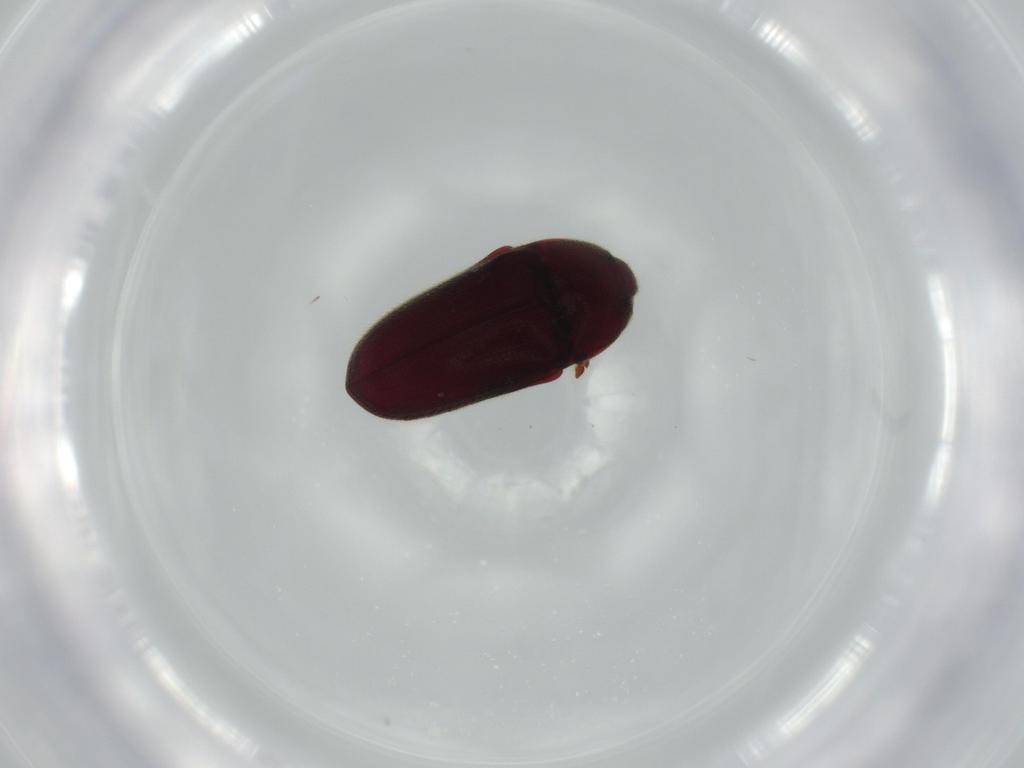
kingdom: Animalia
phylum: Arthropoda
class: Insecta
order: Coleoptera
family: Throscidae
